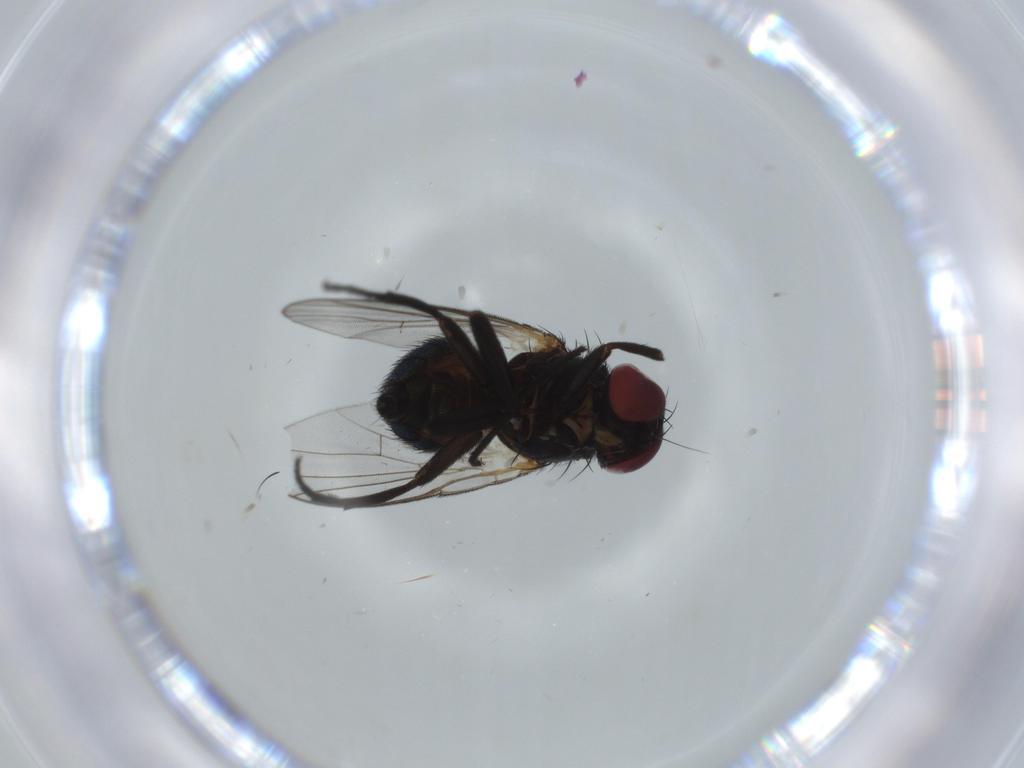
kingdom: Animalia
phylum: Arthropoda
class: Insecta
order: Diptera
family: Agromyzidae
